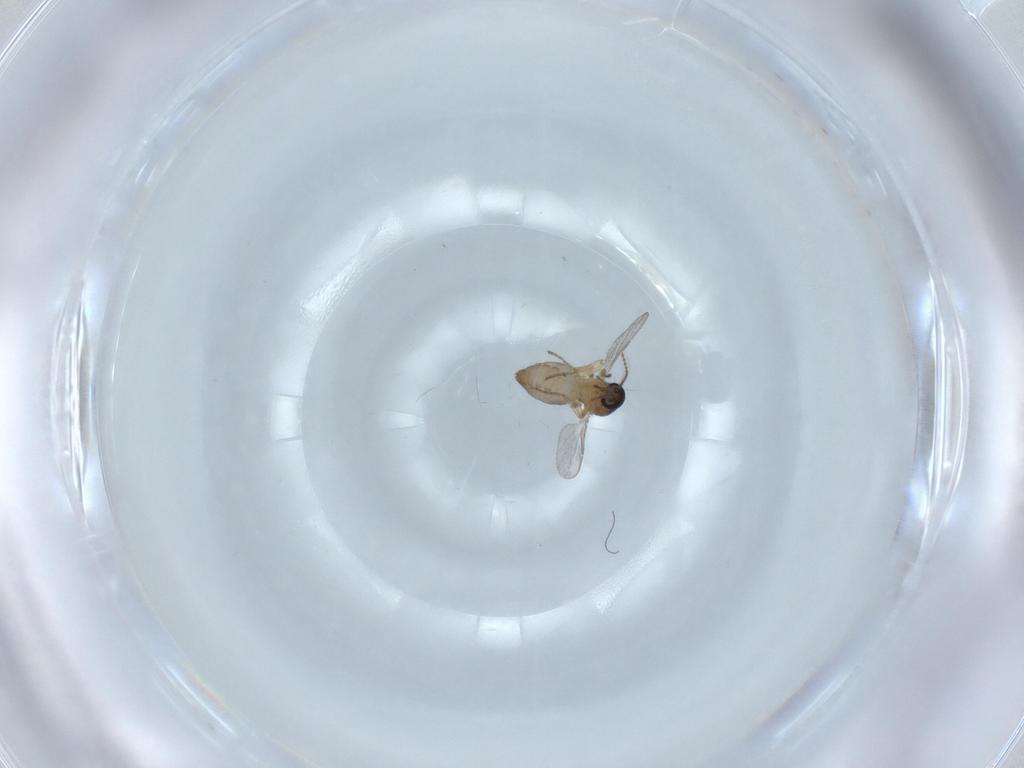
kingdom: Animalia
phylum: Arthropoda
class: Insecta
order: Diptera
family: Ceratopogonidae
